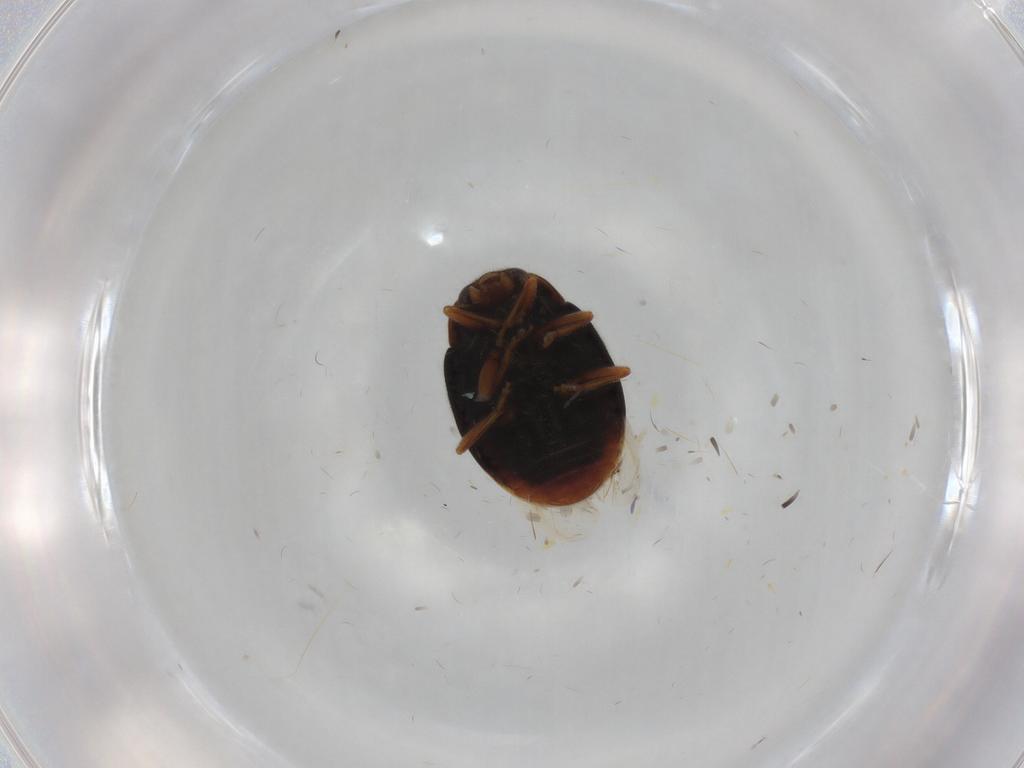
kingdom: Animalia
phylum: Arthropoda
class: Insecta
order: Coleoptera
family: Coccinellidae
